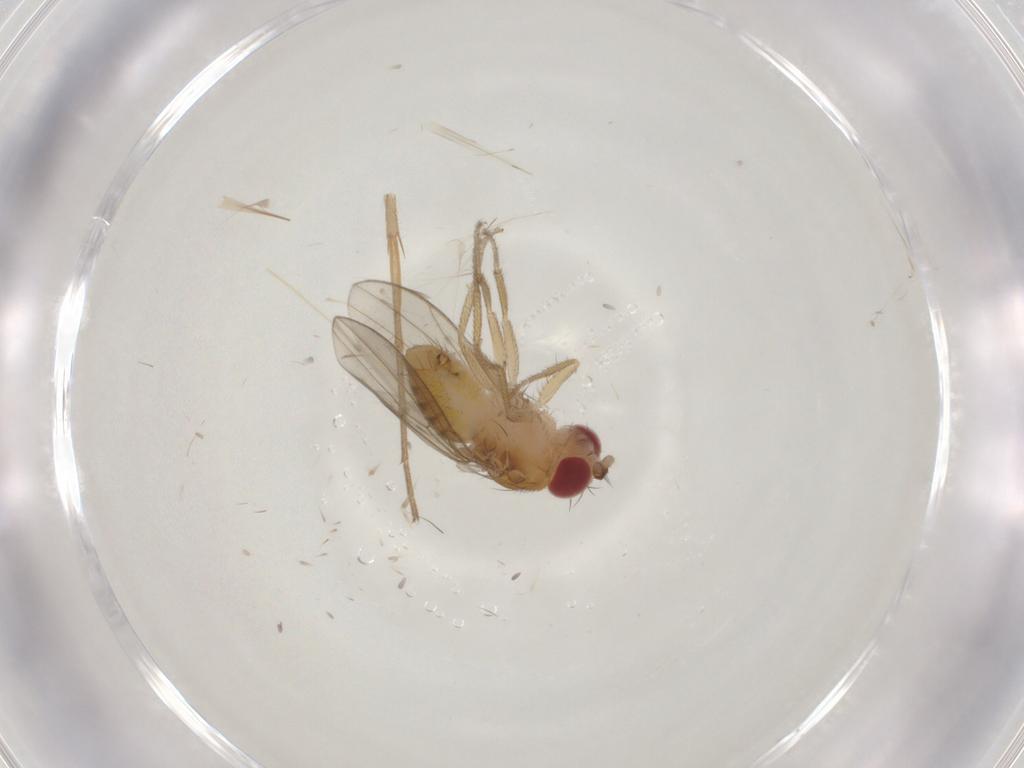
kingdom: Animalia
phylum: Arthropoda
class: Insecta
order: Diptera
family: Drosophilidae
